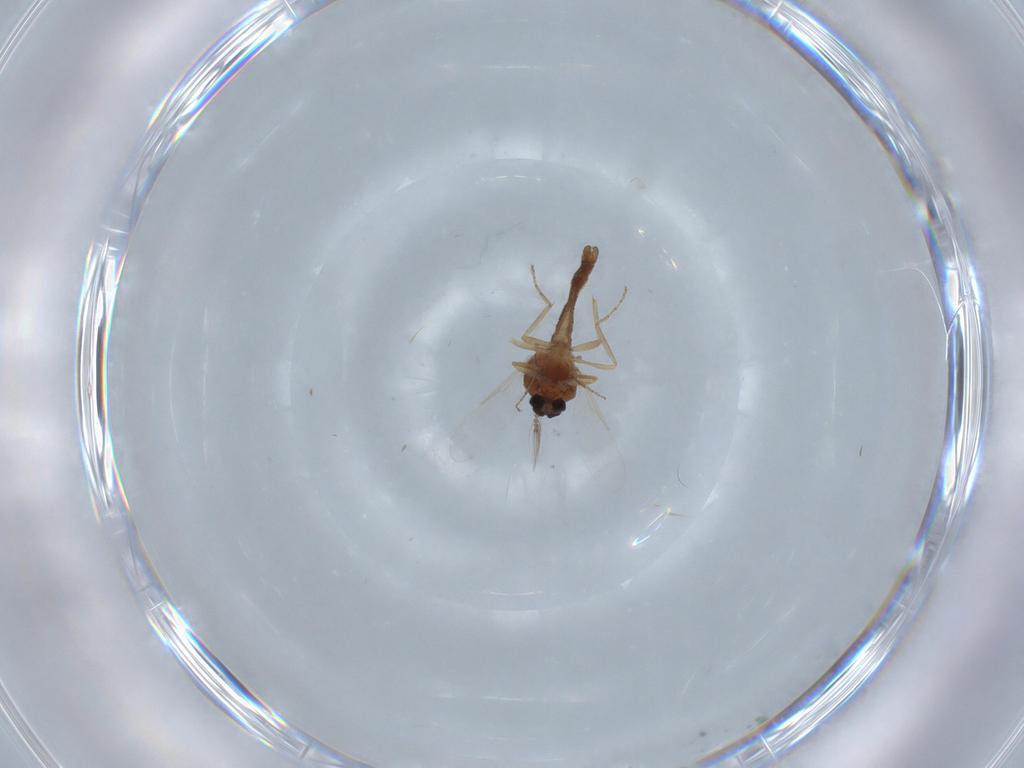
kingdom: Animalia
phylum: Arthropoda
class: Insecta
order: Diptera
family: Ceratopogonidae
